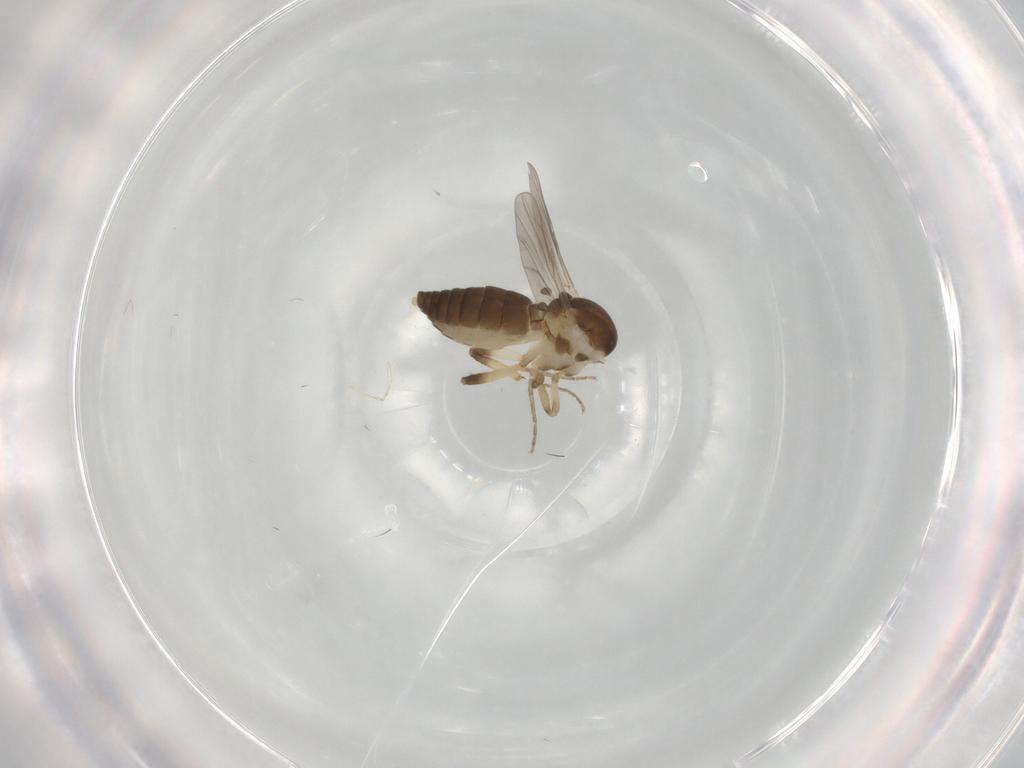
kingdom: Animalia
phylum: Arthropoda
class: Insecta
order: Diptera
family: Ceratopogonidae
